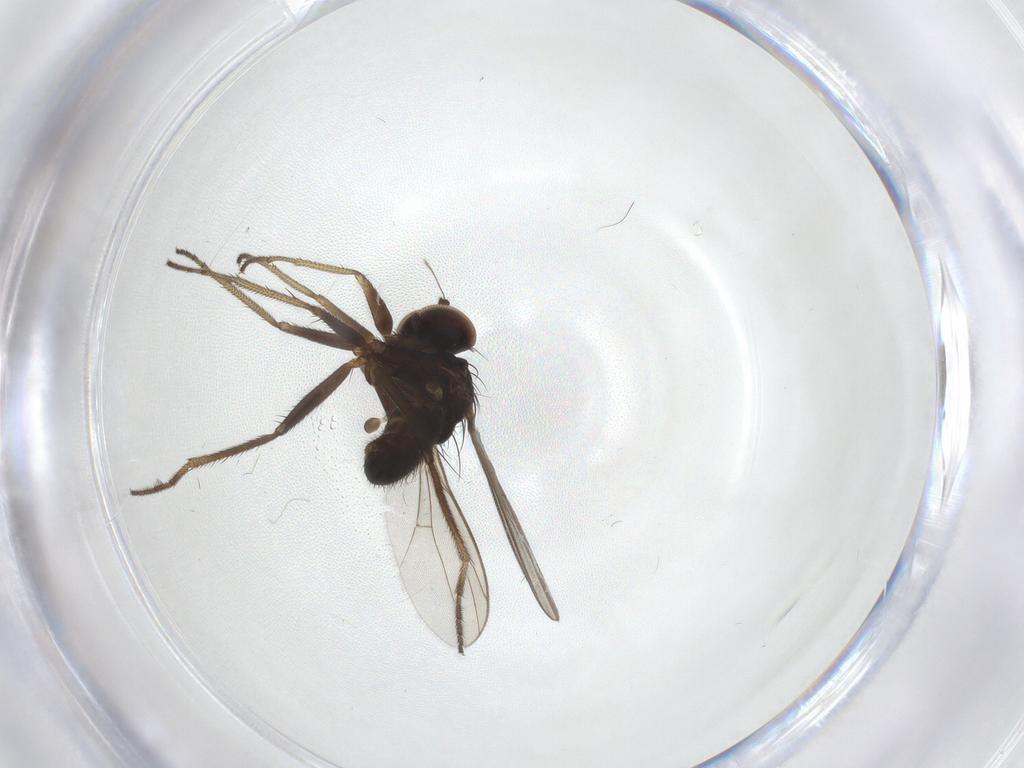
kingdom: Animalia
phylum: Arthropoda
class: Insecta
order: Diptera
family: Dolichopodidae
